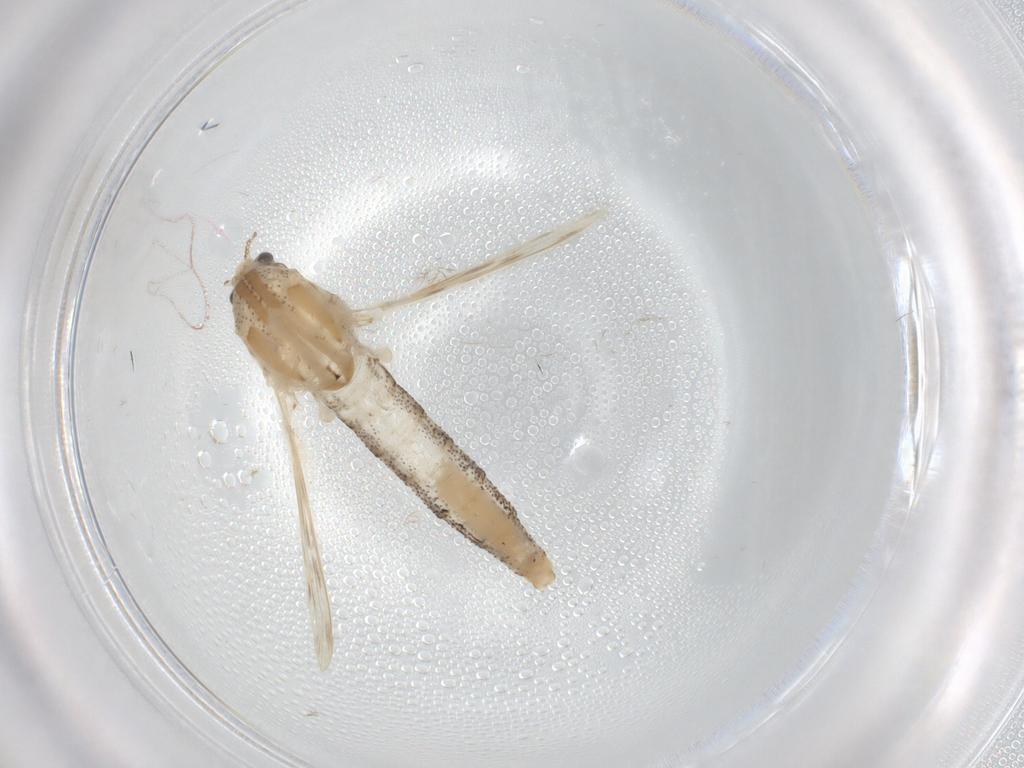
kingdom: Animalia
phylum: Arthropoda
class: Insecta
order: Diptera
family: Chaoboridae
